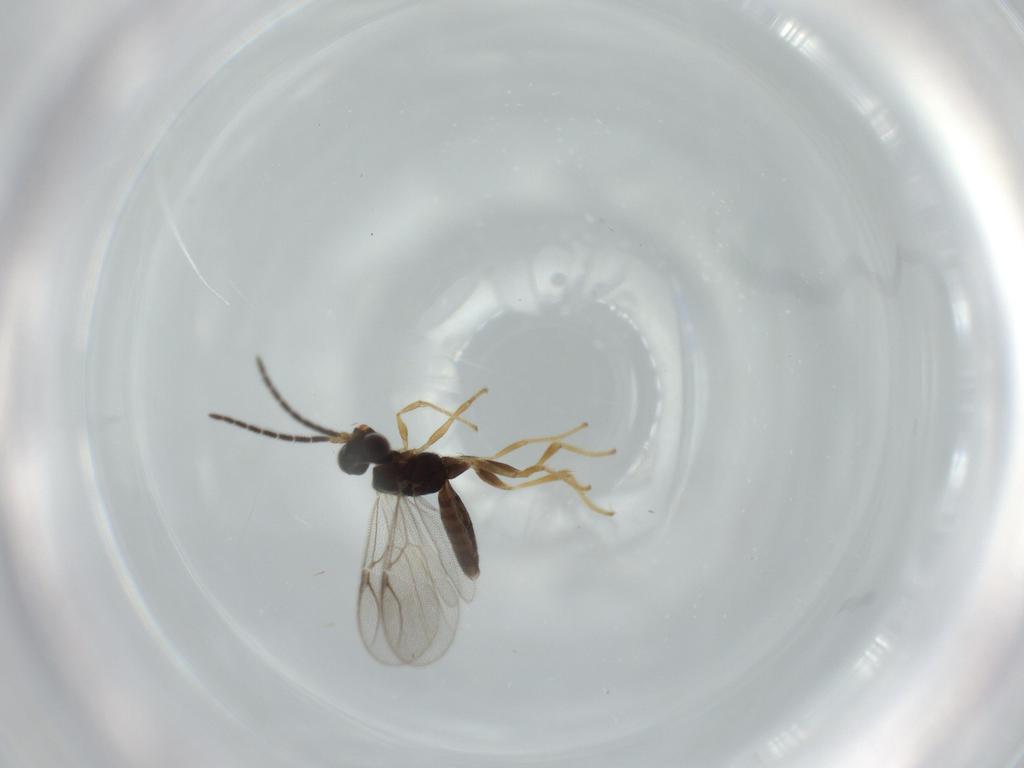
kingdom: Animalia
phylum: Arthropoda
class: Insecta
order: Hymenoptera
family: Dryinidae
